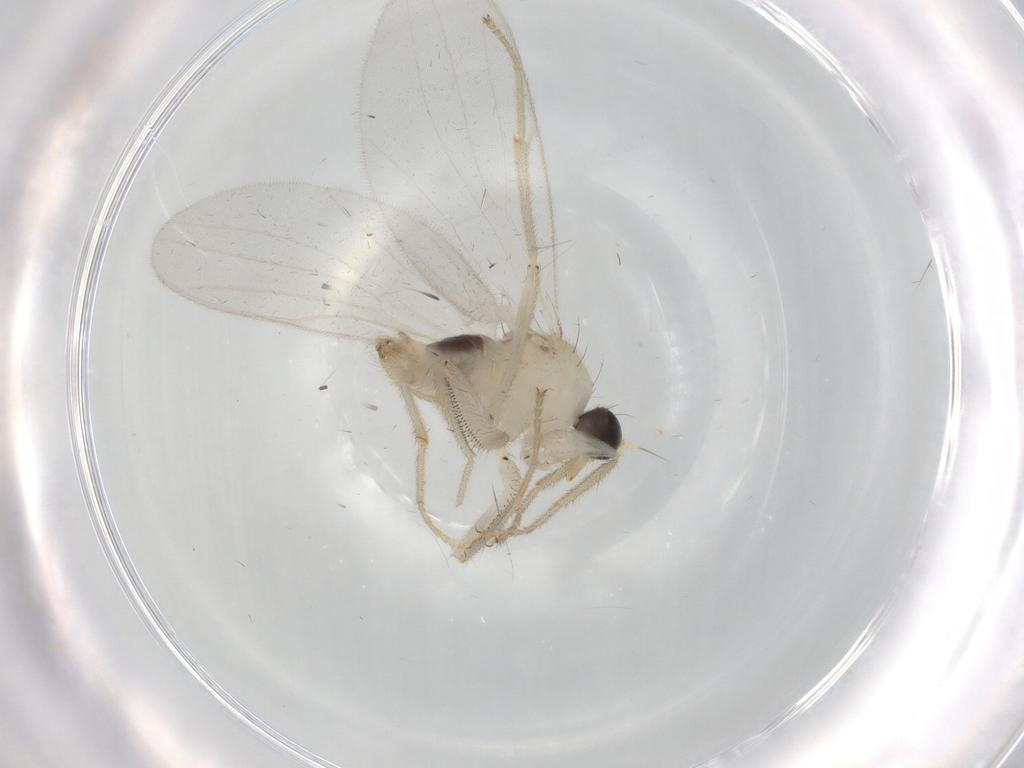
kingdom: Animalia
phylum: Arthropoda
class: Insecta
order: Diptera
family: Hybotidae
